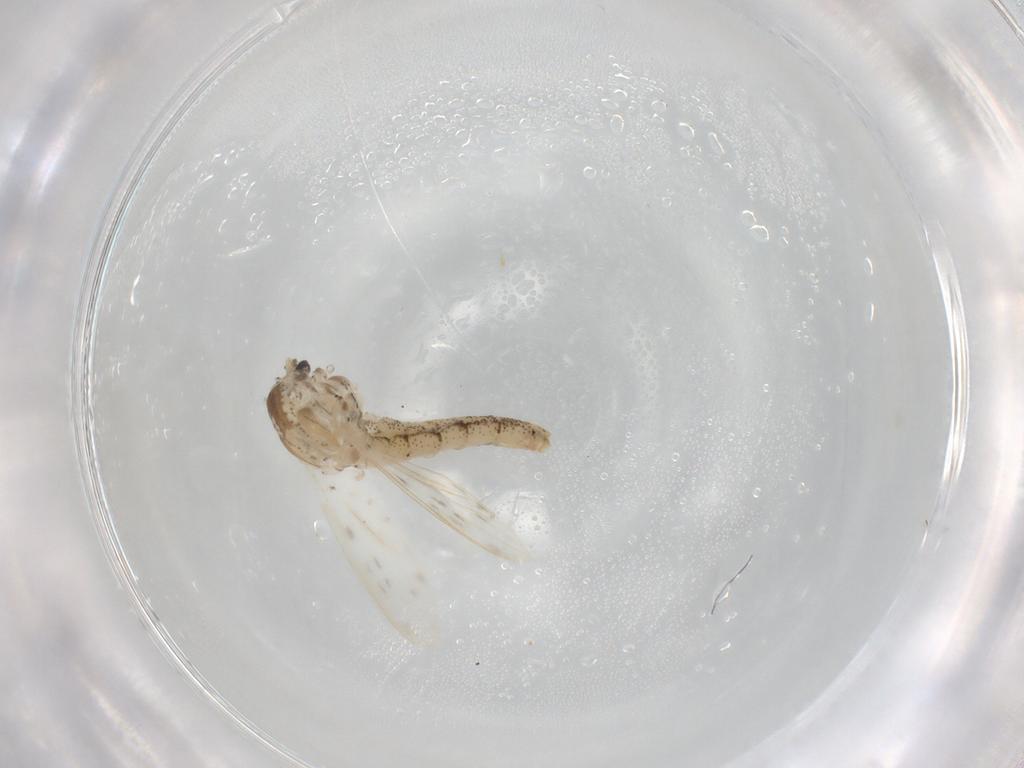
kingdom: Animalia
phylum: Arthropoda
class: Insecta
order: Diptera
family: Chaoboridae
